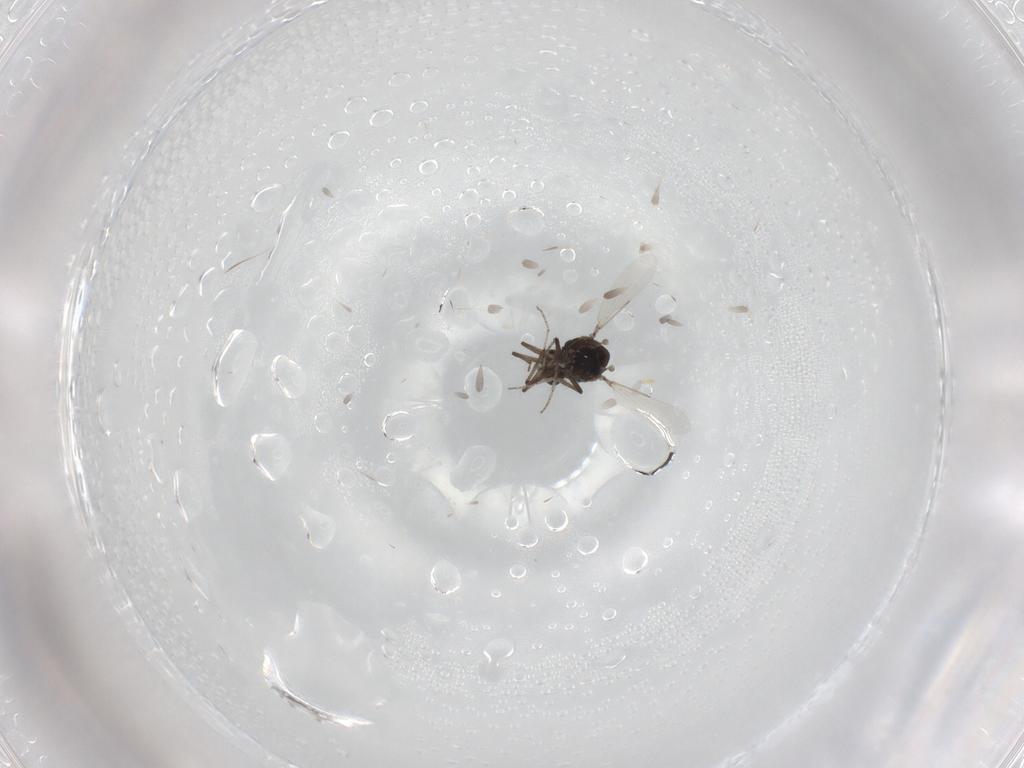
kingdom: Animalia
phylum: Arthropoda
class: Insecta
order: Diptera
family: Ceratopogonidae
